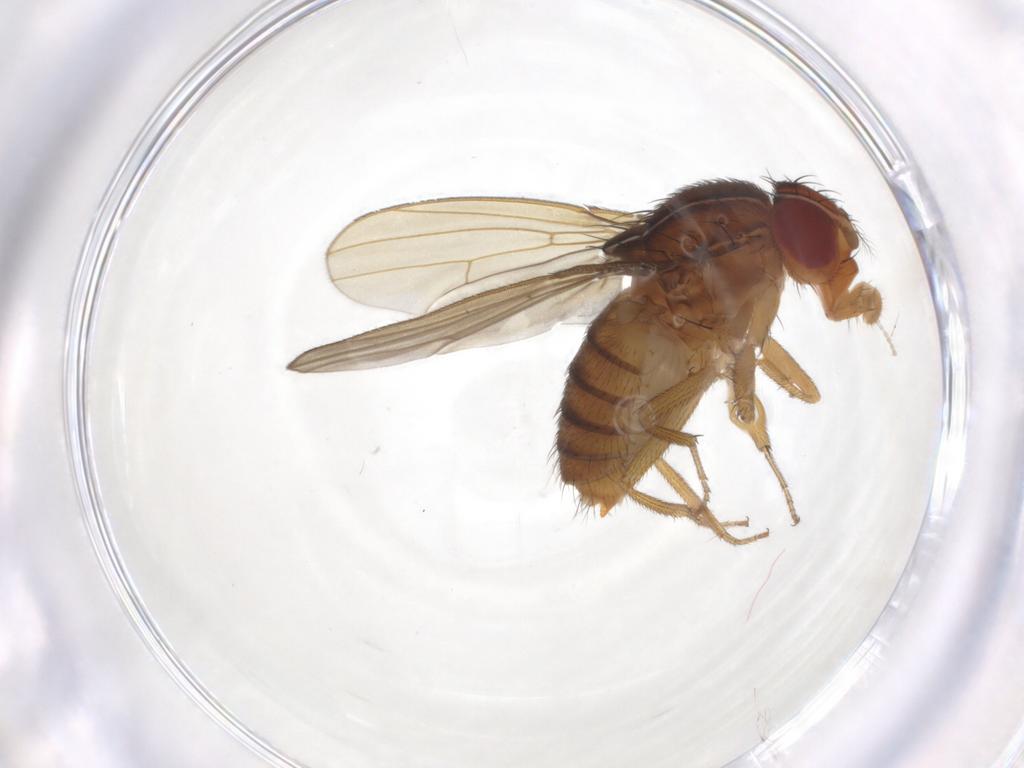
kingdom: Animalia
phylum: Arthropoda
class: Insecta
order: Diptera
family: Drosophilidae
